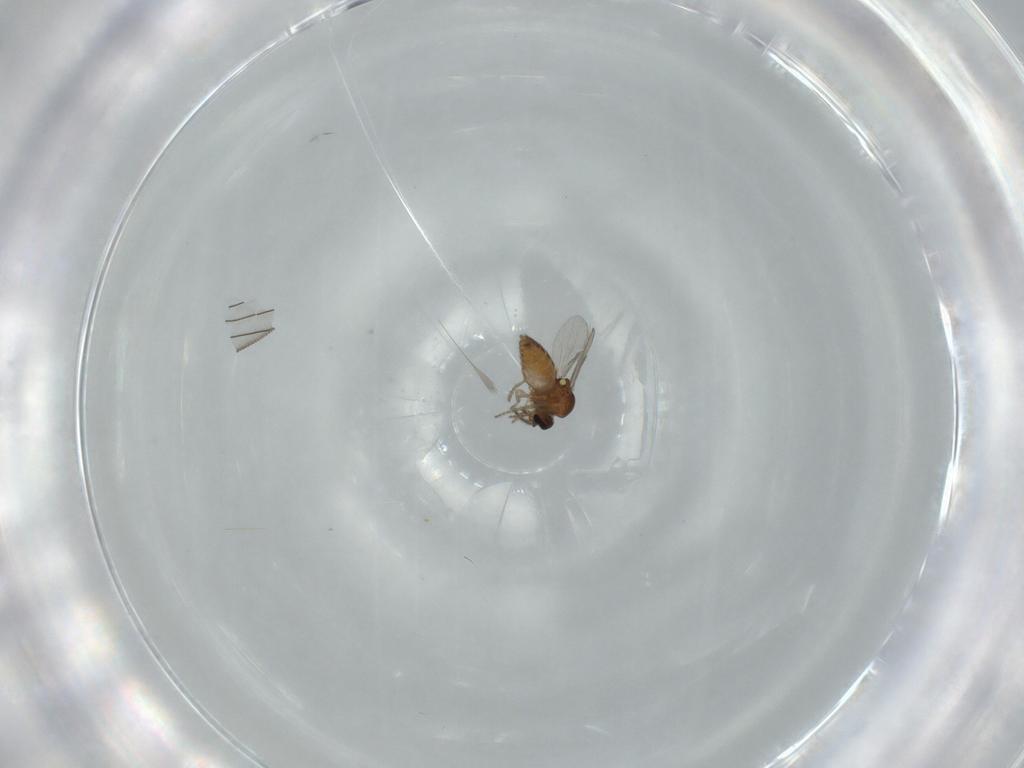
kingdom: Animalia
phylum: Arthropoda
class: Insecta
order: Diptera
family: Ceratopogonidae
